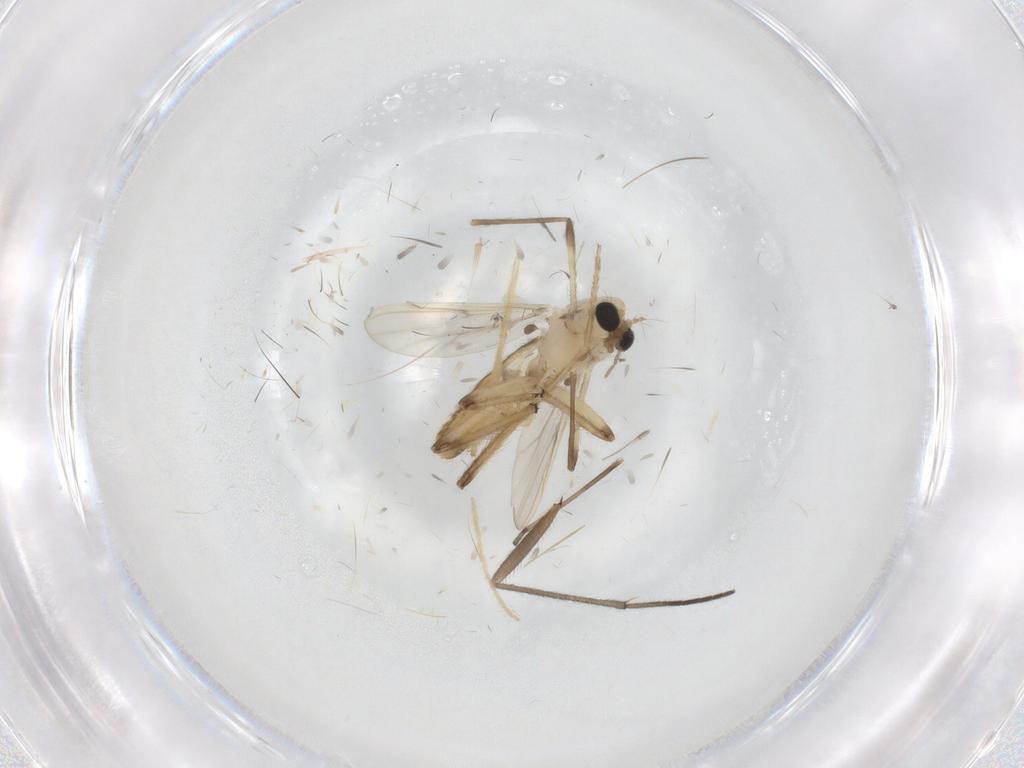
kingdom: Animalia
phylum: Arthropoda
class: Insecta
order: Diptera
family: Chironomidae
